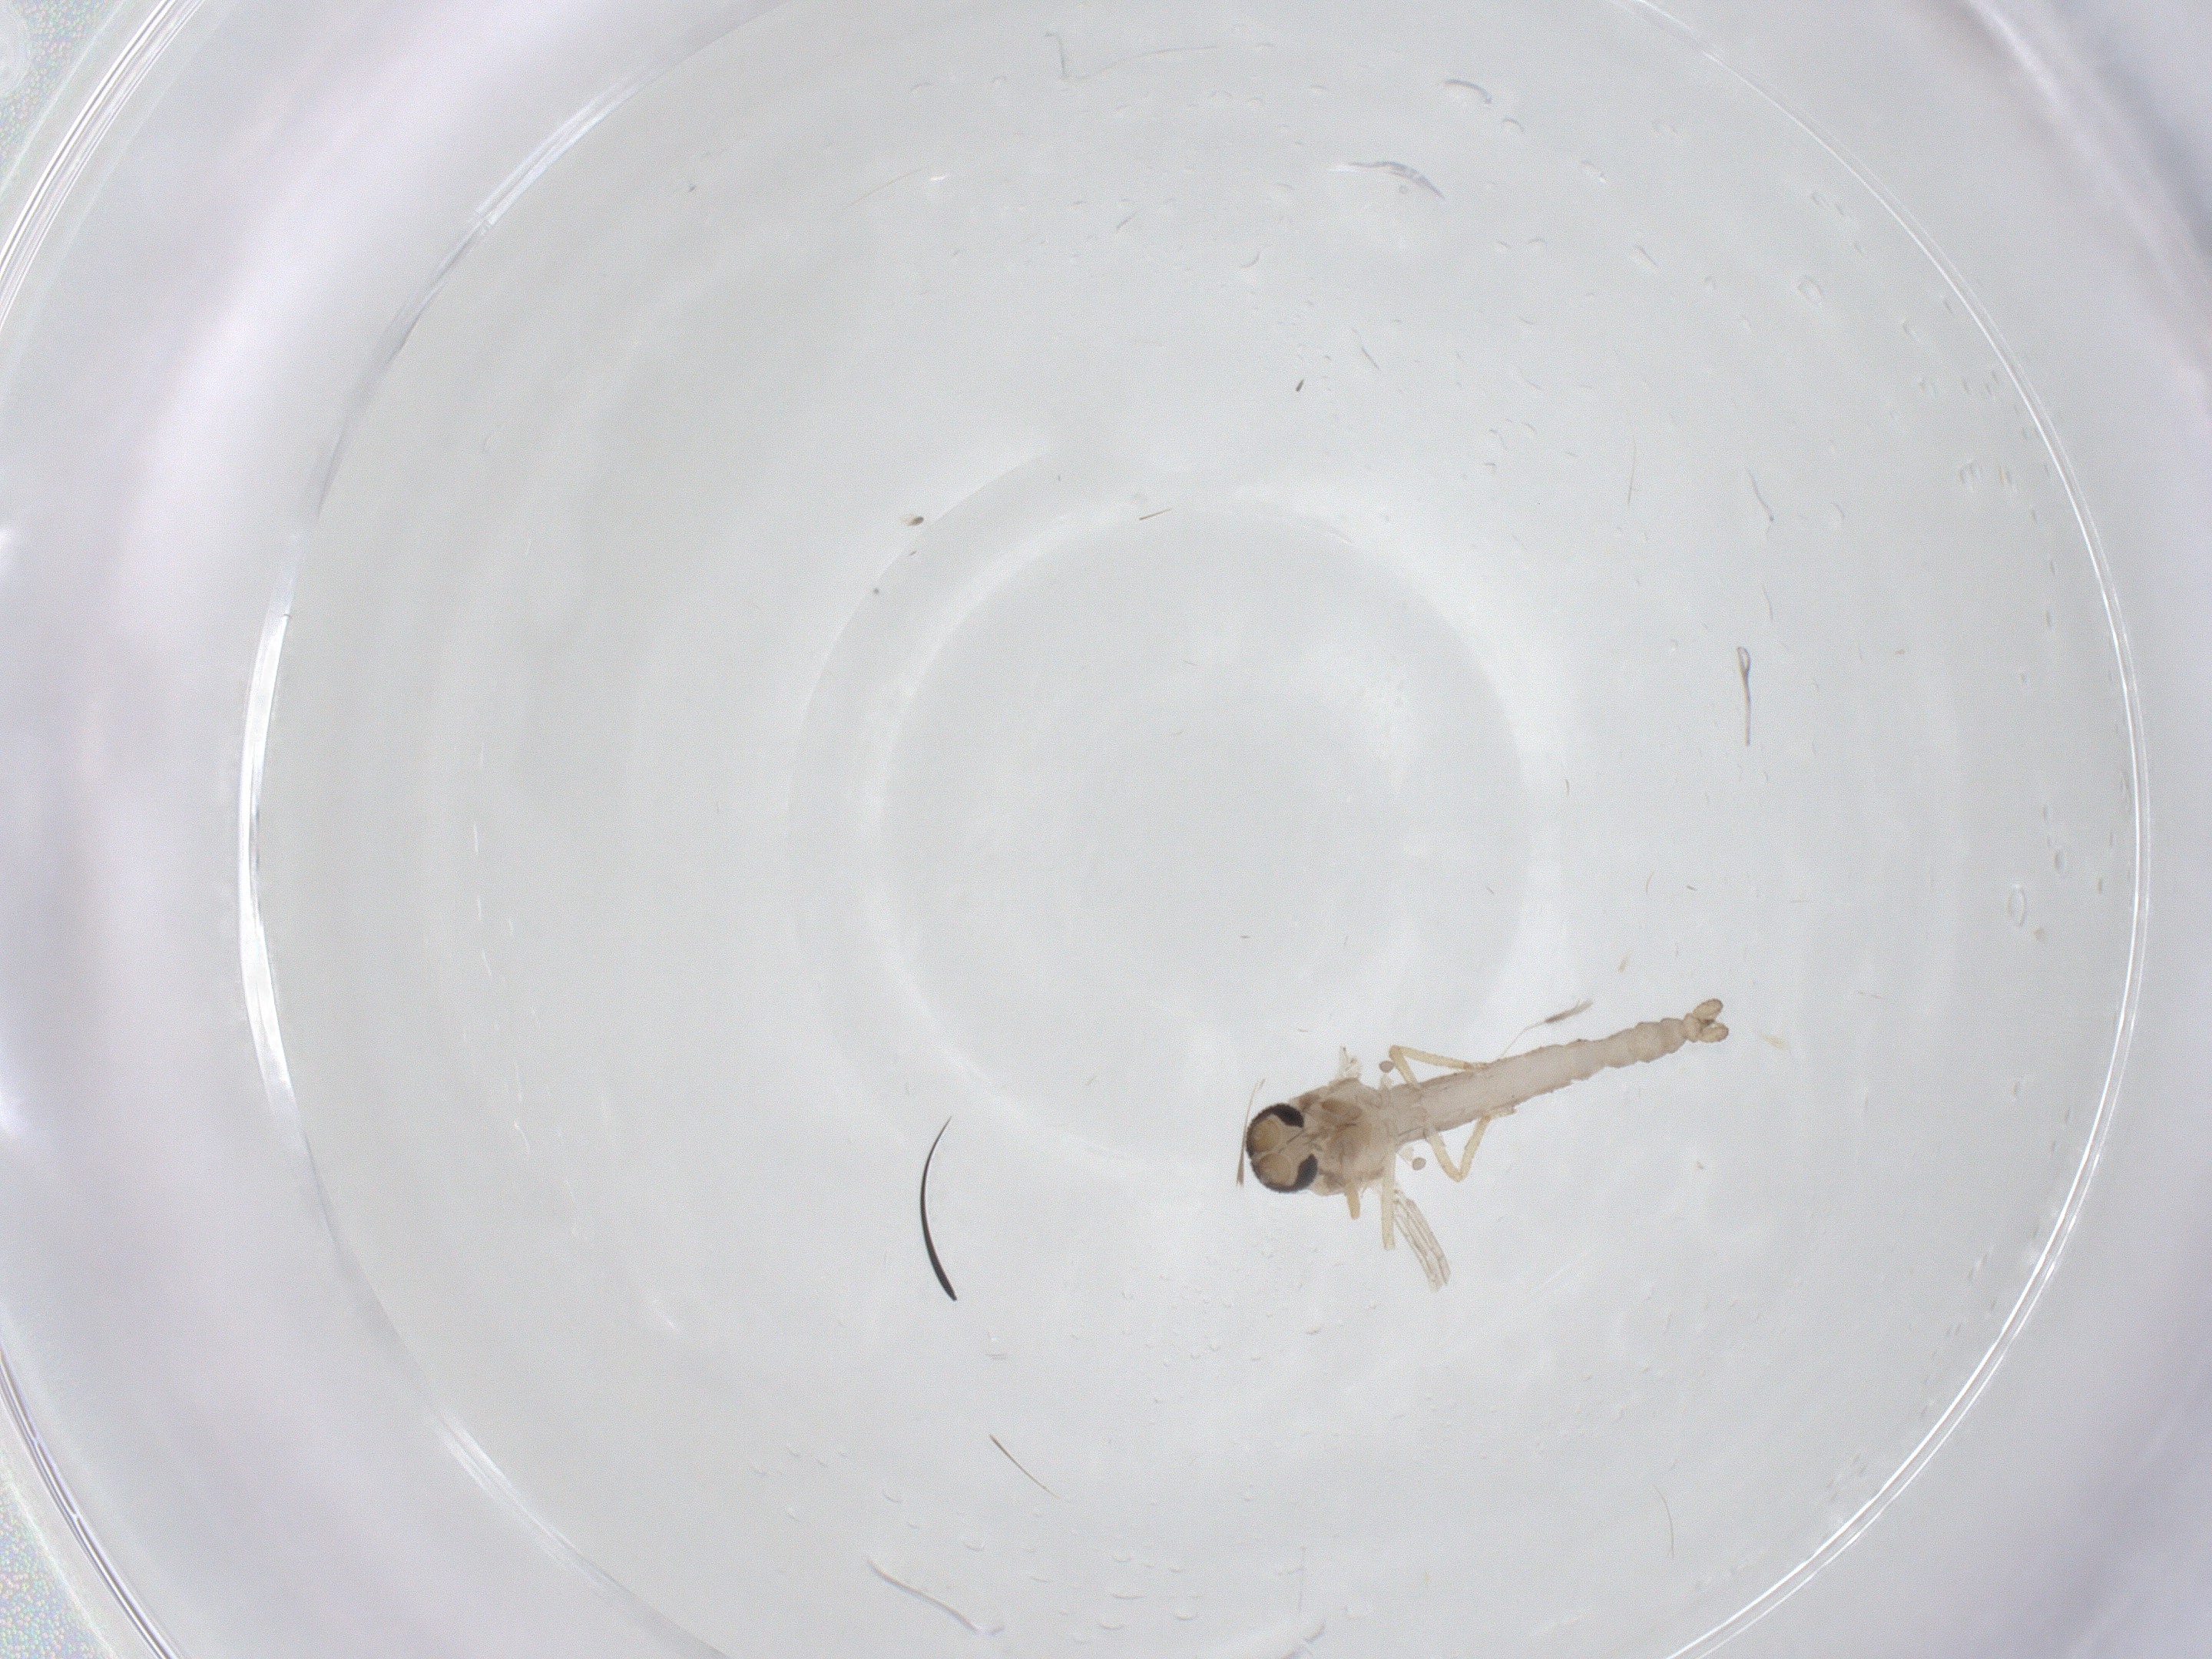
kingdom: Animalia
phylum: Arthropoda
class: Insecta
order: Diptera
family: Ceratopogonidae
